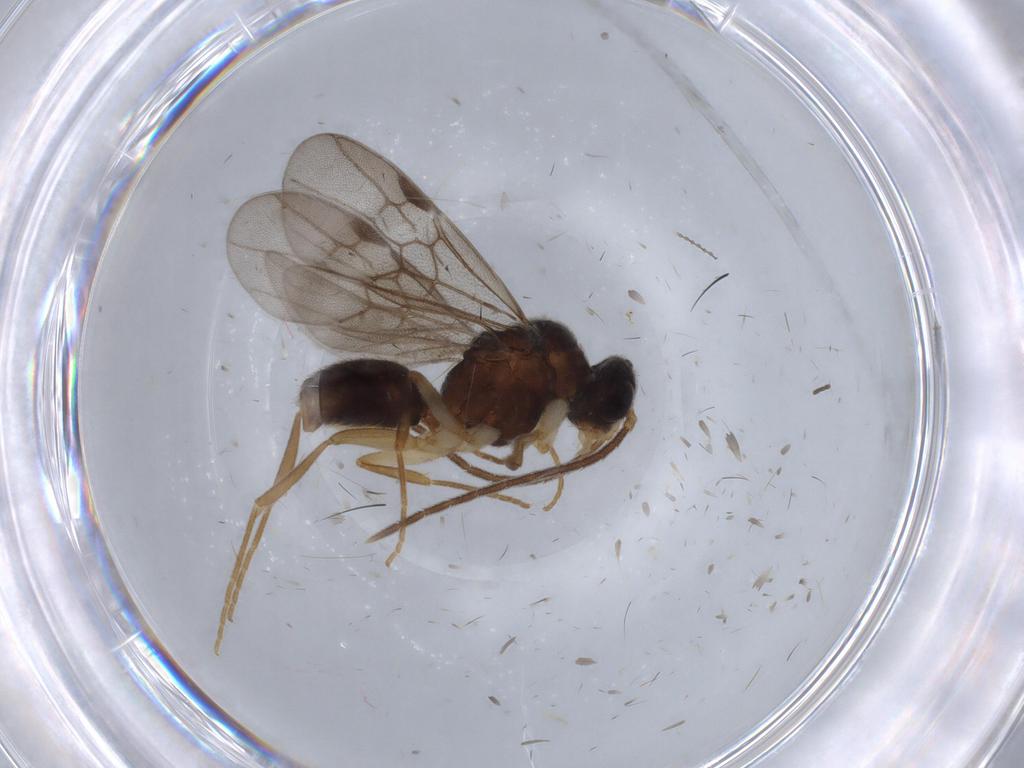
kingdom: Animalia
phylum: Arthropoda
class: Insecta
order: Hymenoptera
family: Formicidae
